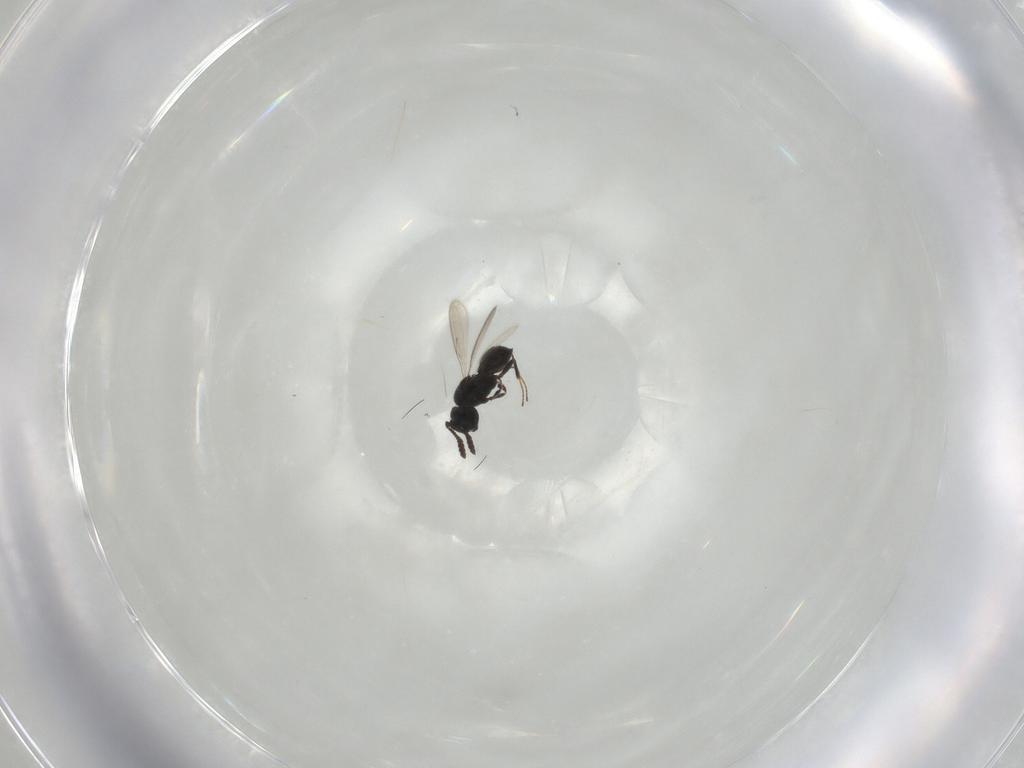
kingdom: Animalia
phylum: Arthropoda
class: Insecta
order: Hymenoptera
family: Scelionidae
